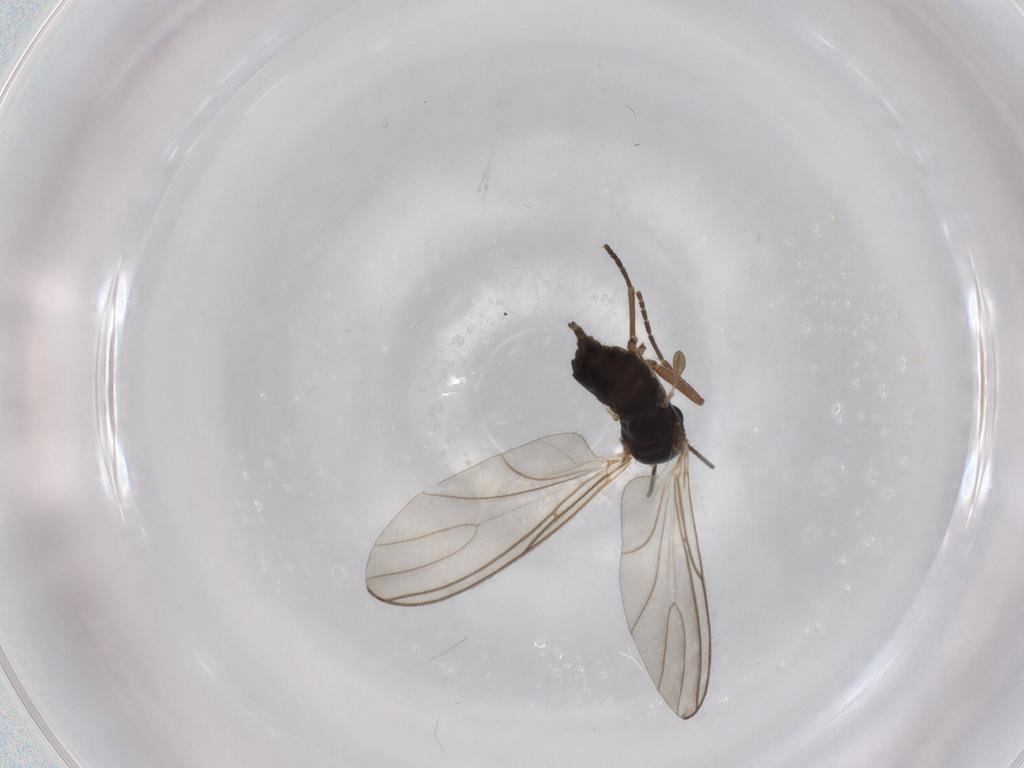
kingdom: Animalia
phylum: Arthropoda
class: Insecta
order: Diptera
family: Sciaridae
